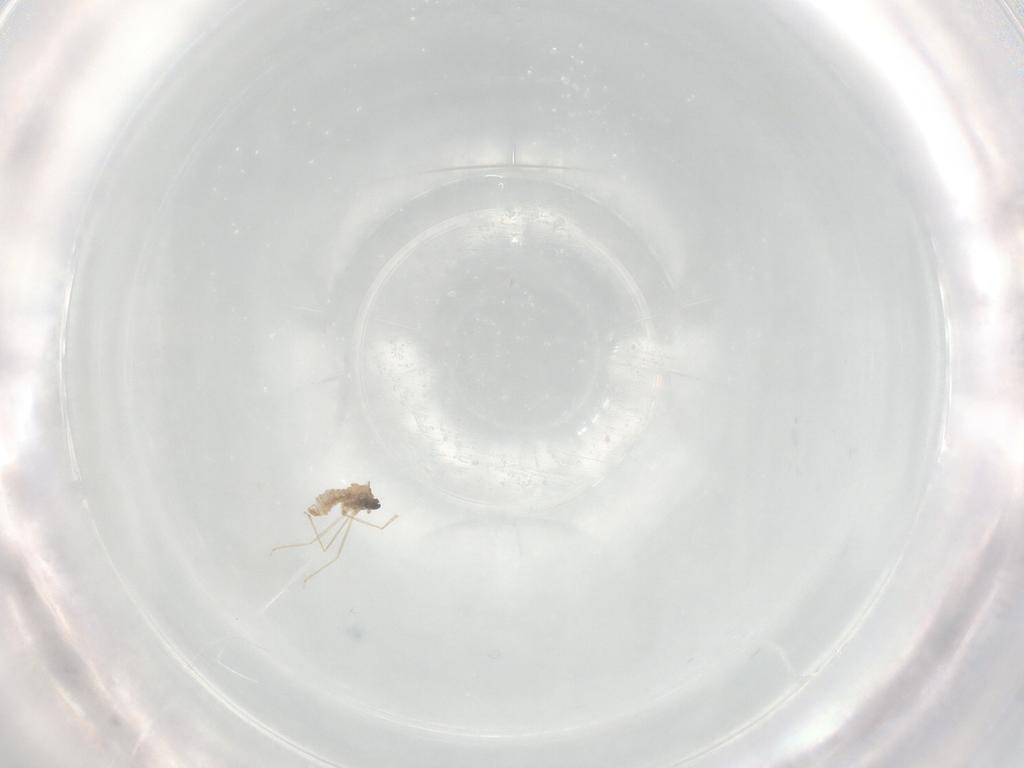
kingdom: Animalia
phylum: Arthropoda
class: Insecta
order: Diptera
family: Cecidomyiidae
